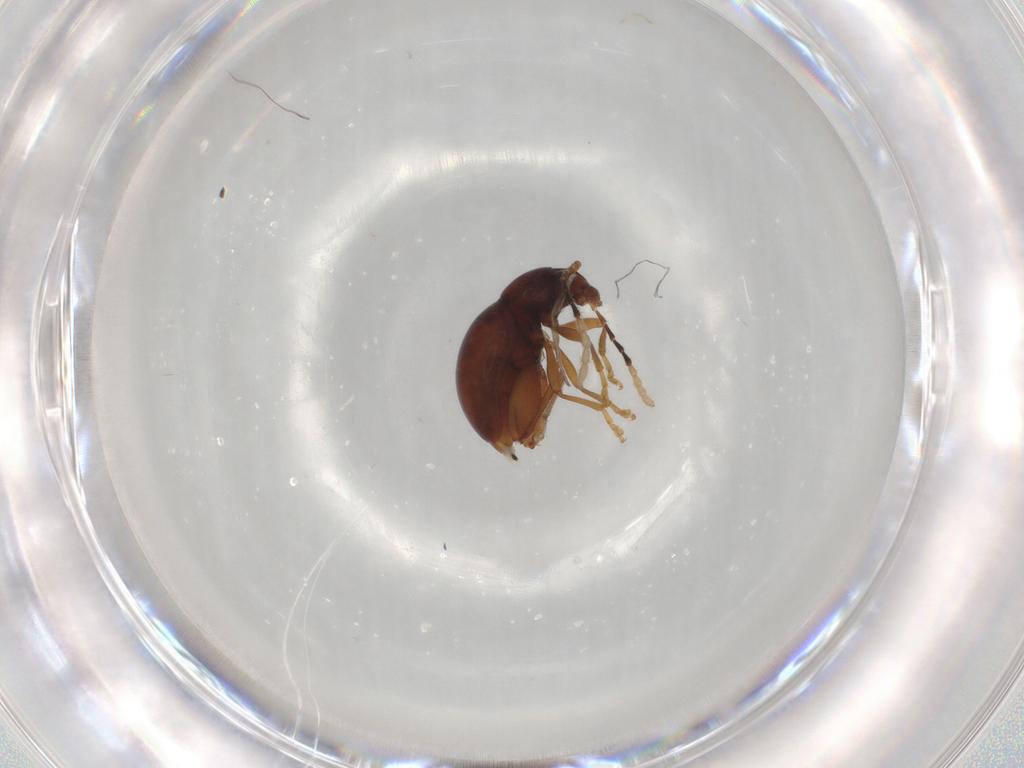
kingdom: Animalia
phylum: Arthropoda
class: Insecta
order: Coleoptera
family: Chrysomelidae
